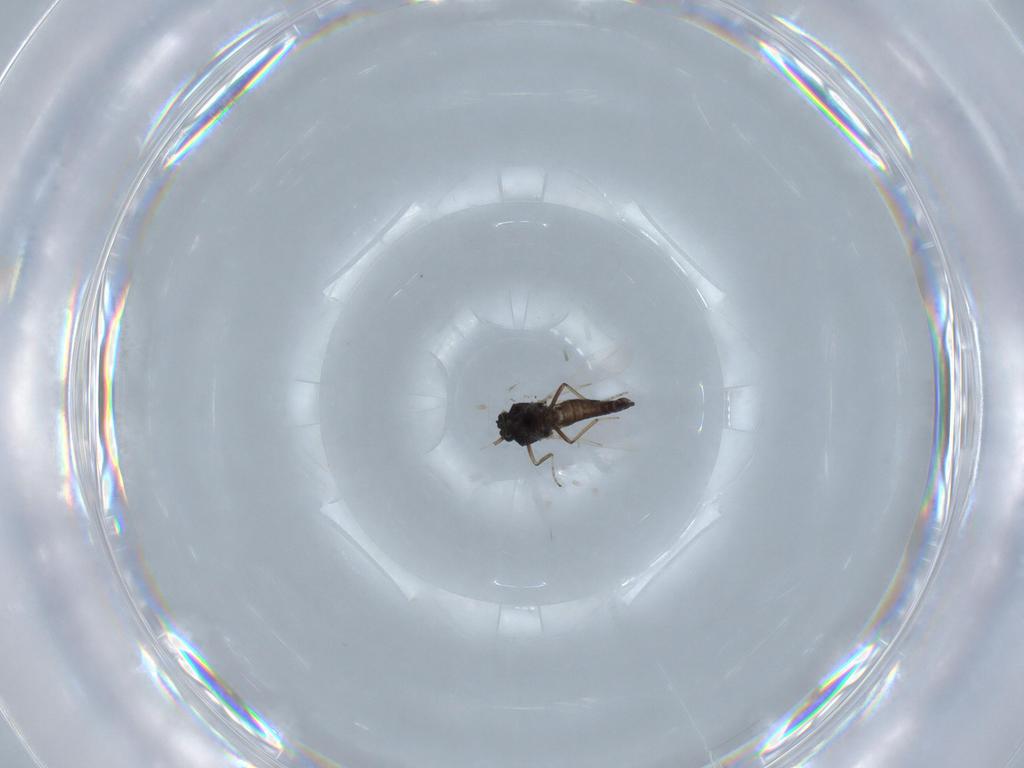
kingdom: Animalia
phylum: Arthropoda
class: Insecta
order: Diptera
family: Ceratopogonidae
